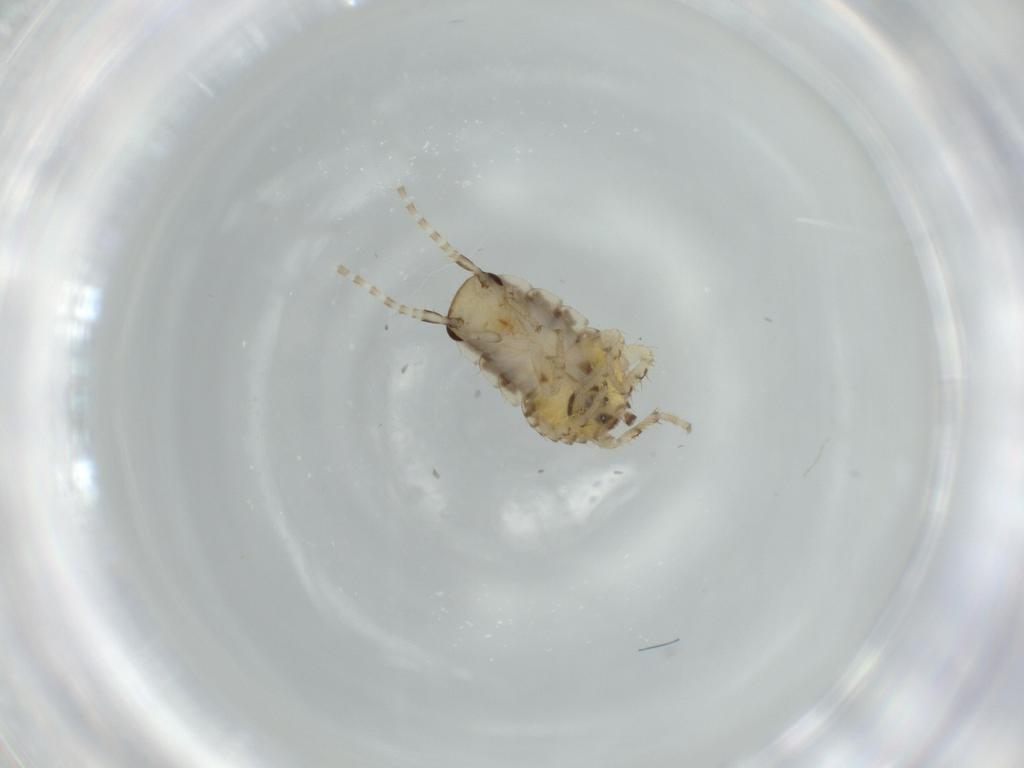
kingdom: Animalia
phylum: Arthropoda
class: Insecta
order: Blattodea
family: Ectobiidae
